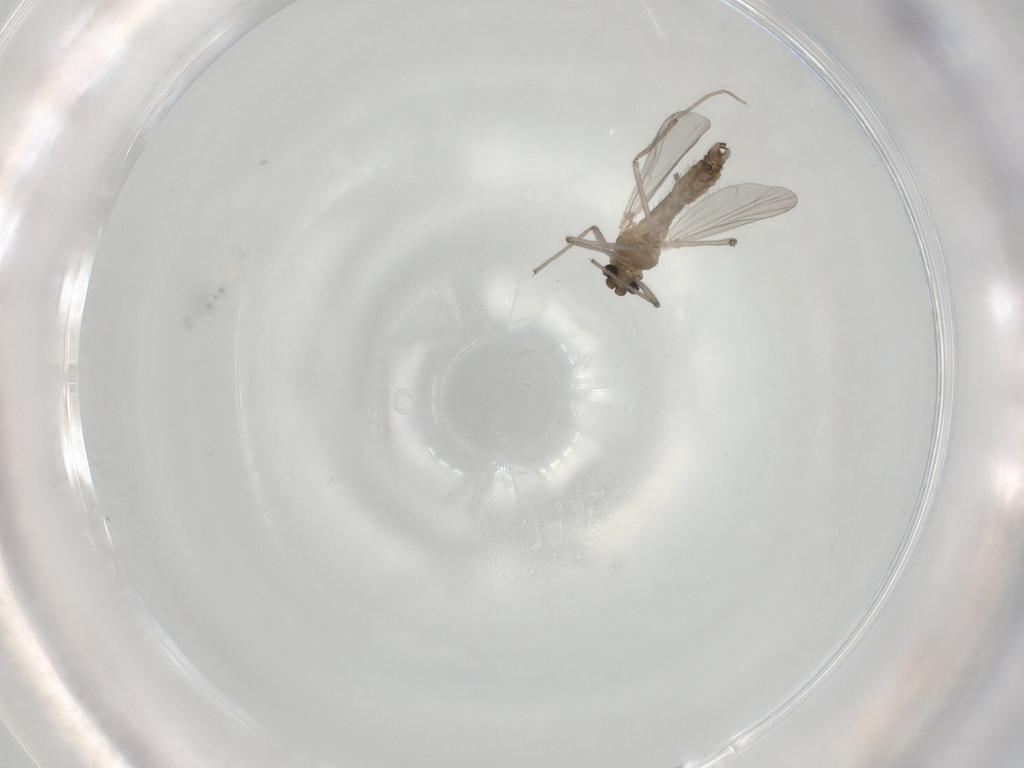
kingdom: Animalia
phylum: Arthropoda
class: Insecta
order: Diptera
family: Chironomidae
